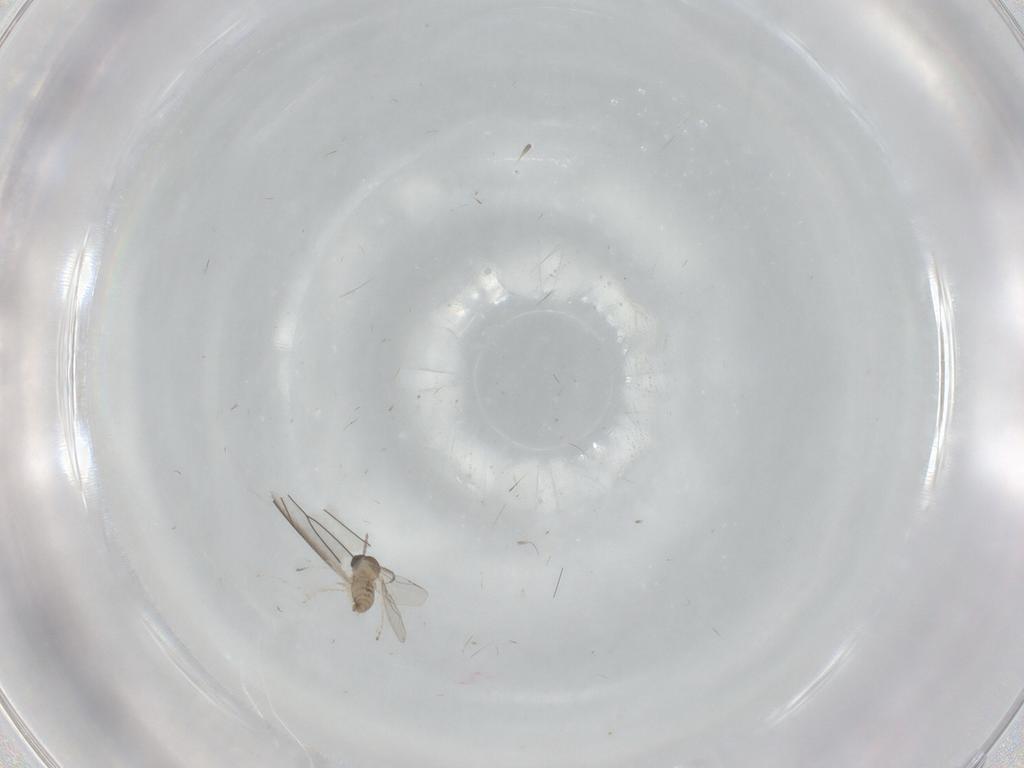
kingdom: Animalia
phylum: Arthropoda
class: Insecta
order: Diptera
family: Cecidomyiidae
